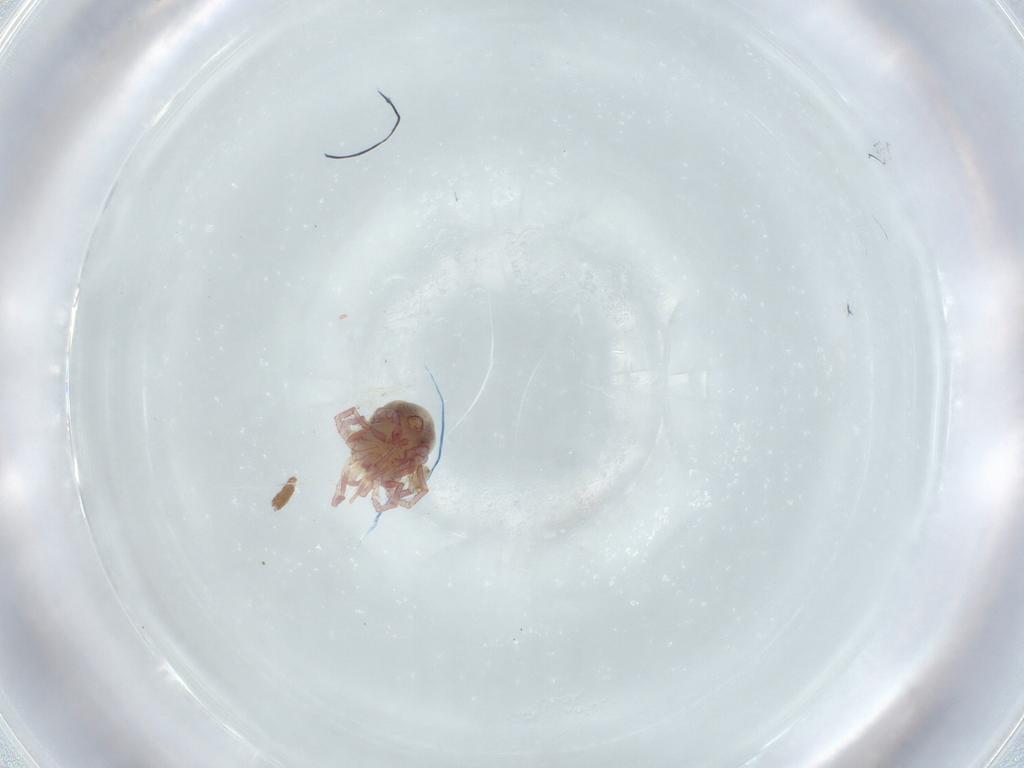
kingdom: Animalia
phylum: Arthropoda
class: Arachnida
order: Trombidiformes
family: Pionidae
